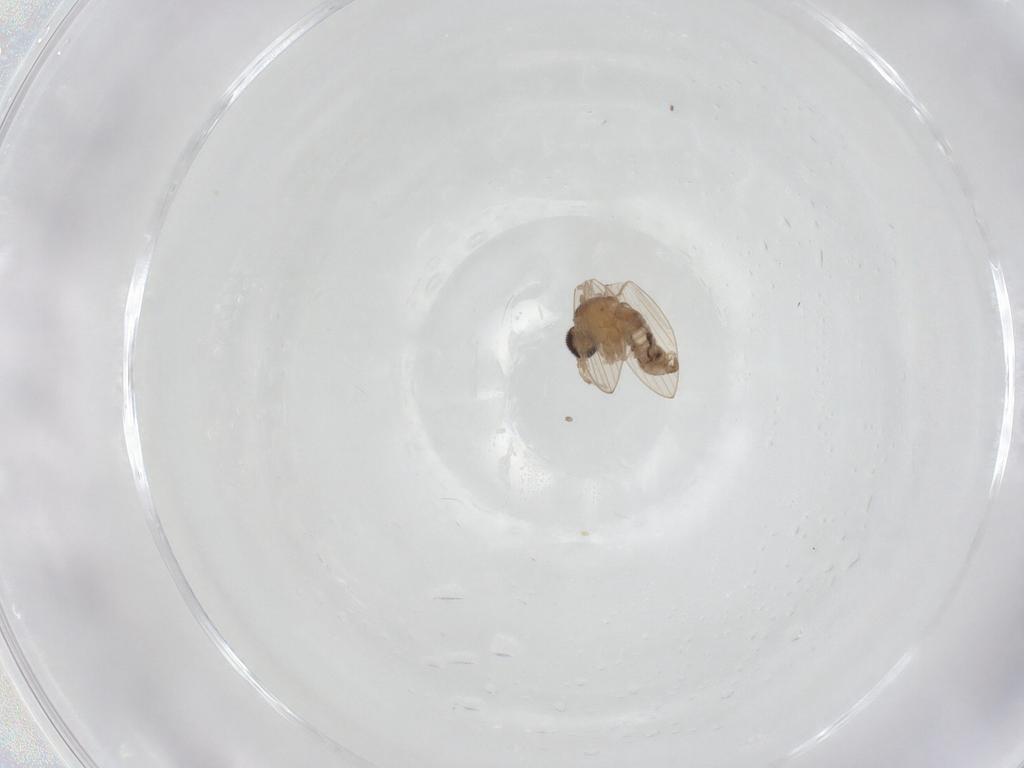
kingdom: Animalia
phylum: Arthropoda
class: Insecta
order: Diptera
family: Psychodidae
